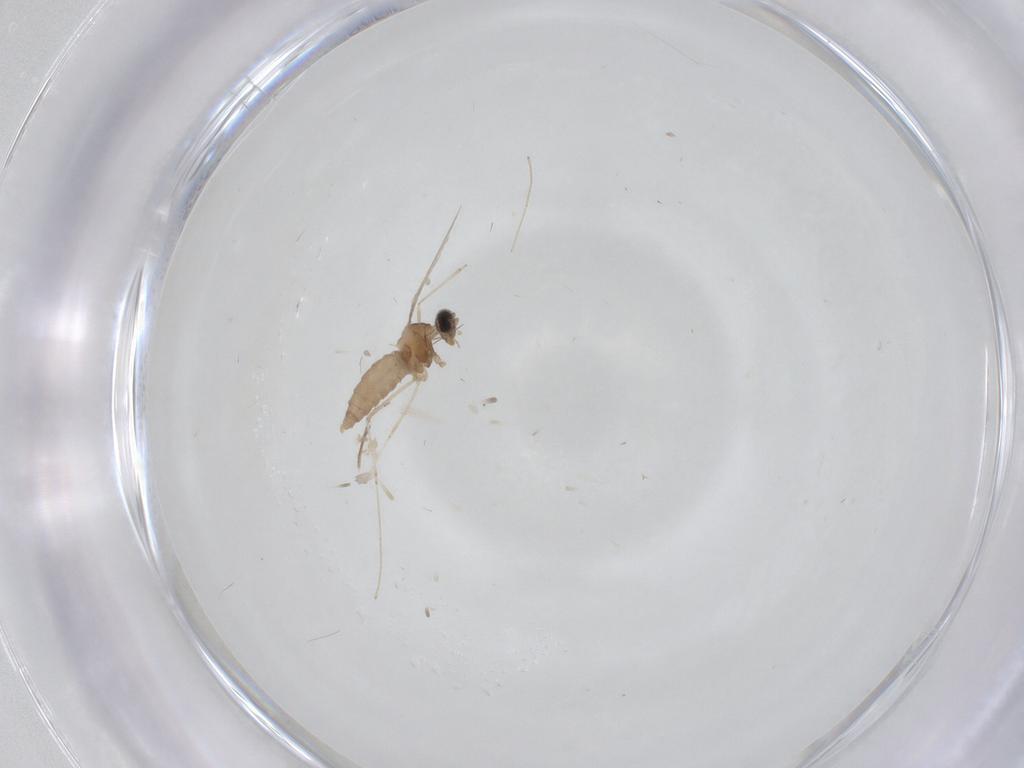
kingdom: Animalia
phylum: Arthropoda
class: Insecta
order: Diptera
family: Cecidomyiidae
